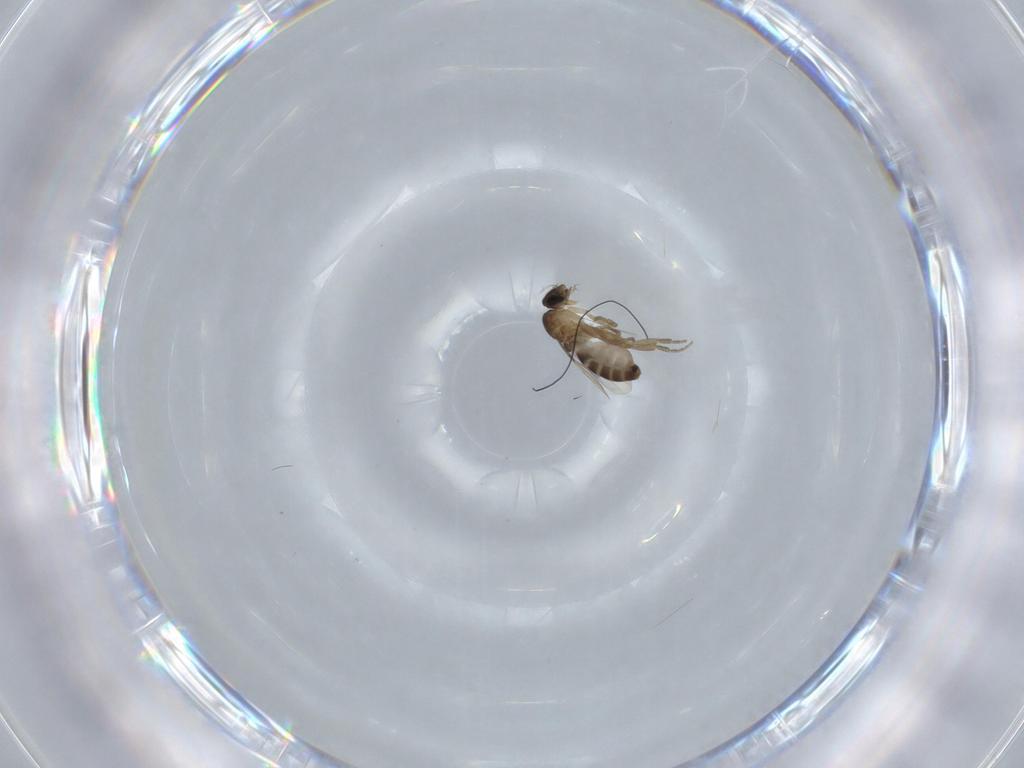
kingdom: Animalia
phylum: Arthropoda
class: Insecta
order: Diptera
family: Phoridae
